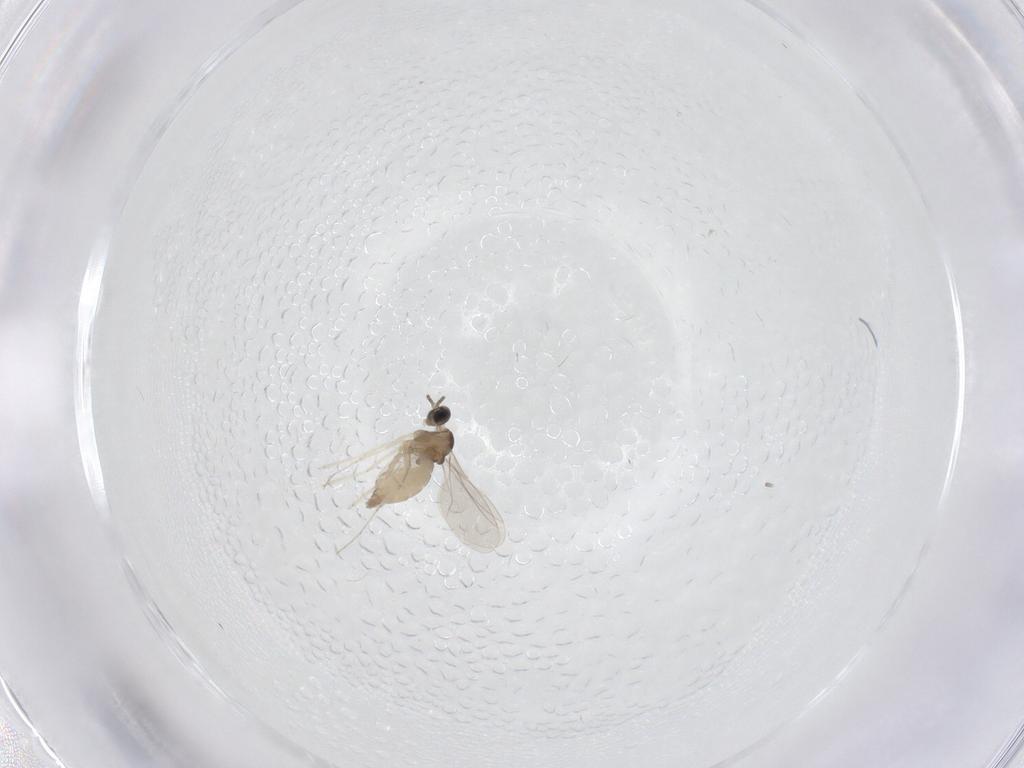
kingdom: Animalia
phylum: Arthropoda
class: Insecta
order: Diptera
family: Cecidomyiidae
